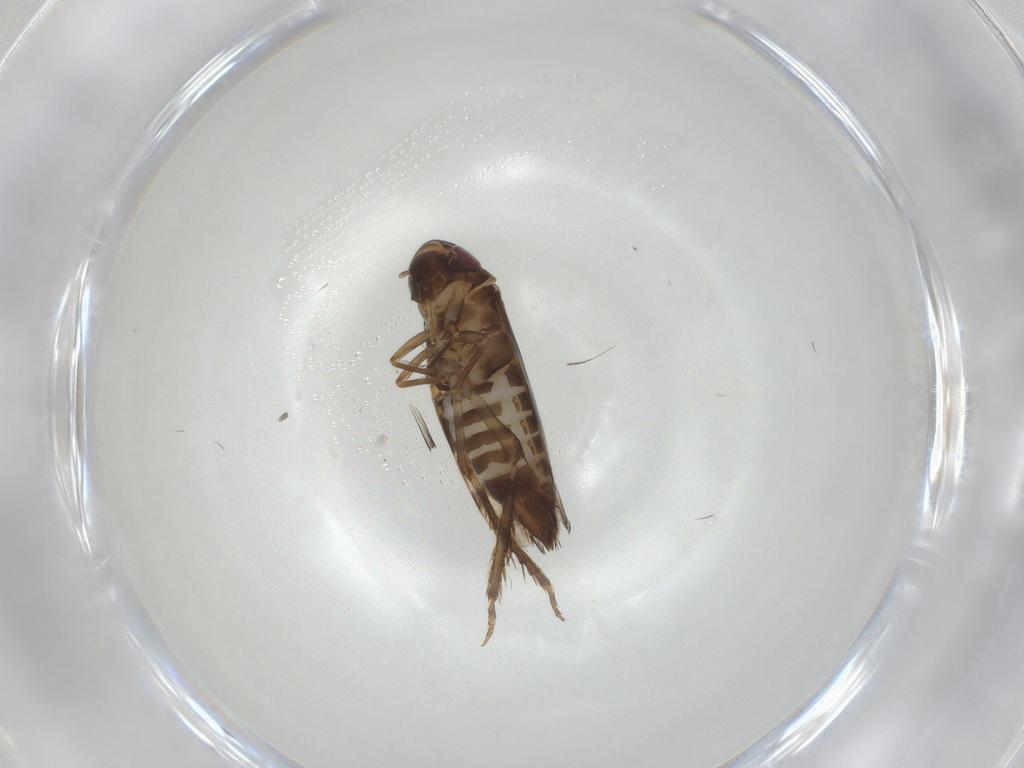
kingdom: Animalia
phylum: Arthropoda
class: Insecta
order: Hemiptera
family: Cicadellidae
